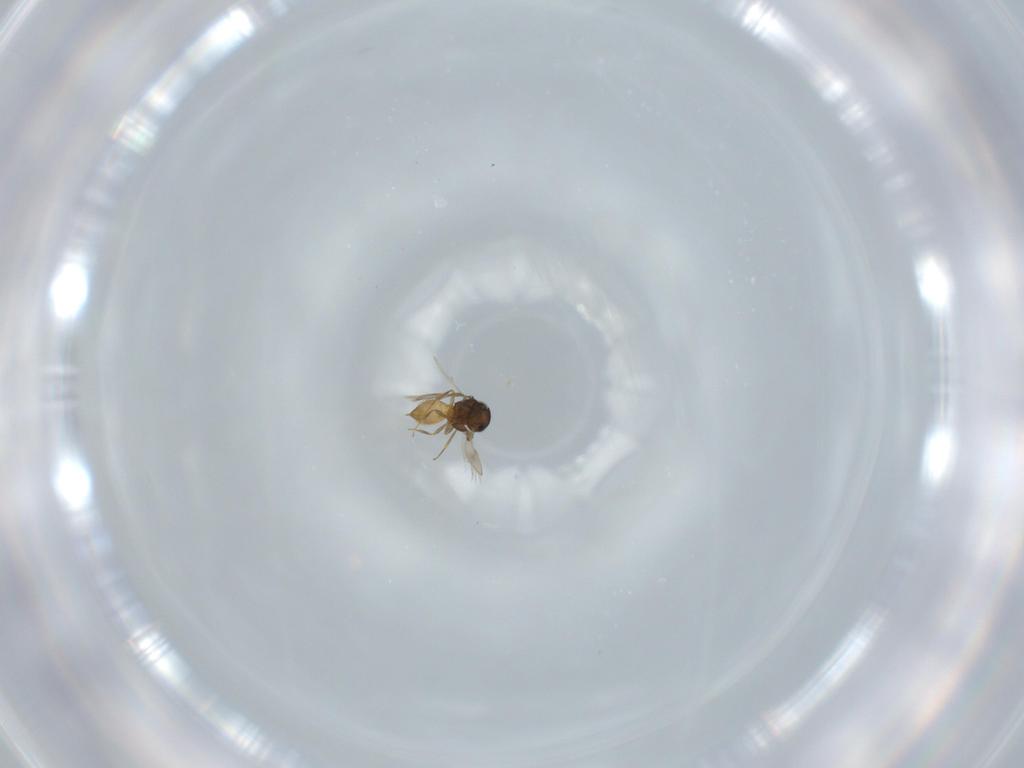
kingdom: Animalia
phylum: Arthropoda
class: Insecta
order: Hymenoptera
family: Scelionidae
